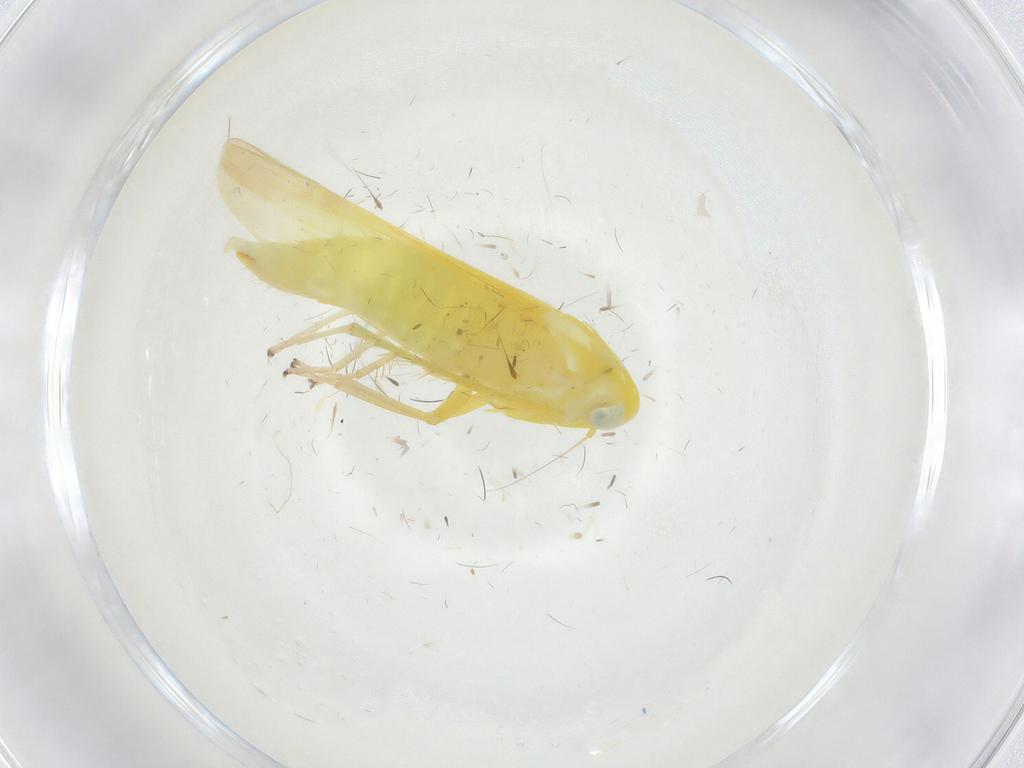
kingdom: Animalia
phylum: Arthropoda
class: Insecta
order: Hemiptera
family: Cicadellidae
